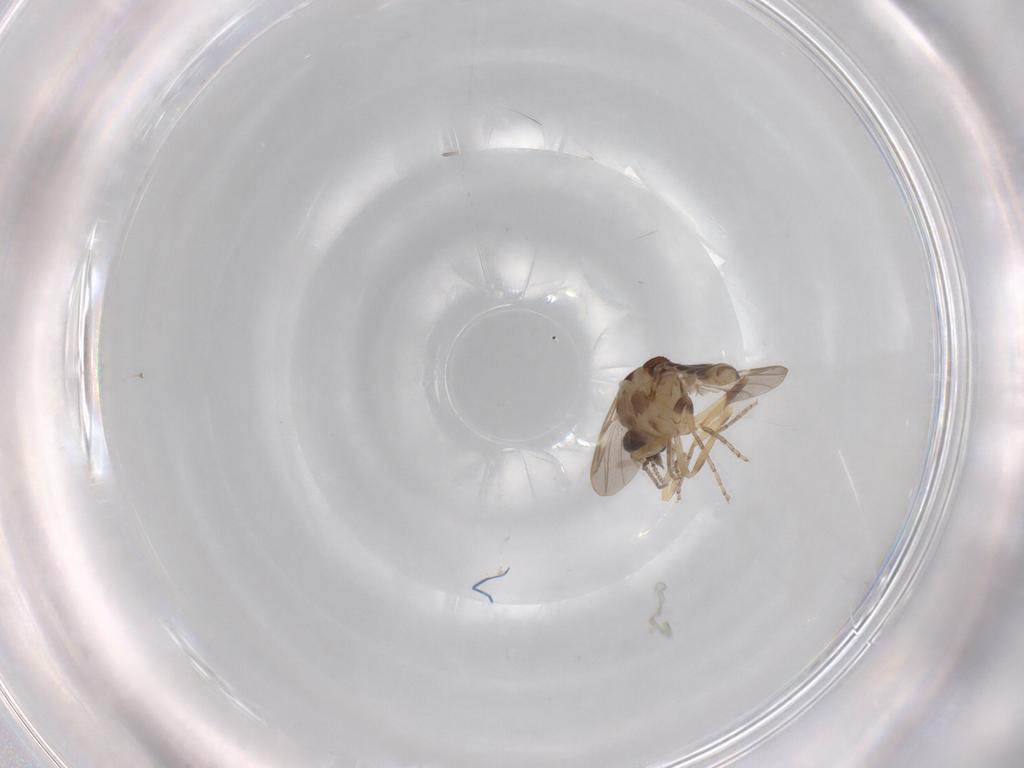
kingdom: Animalia
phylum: Arthropoda
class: Insecta
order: Diptera
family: Ceratopogonidae
